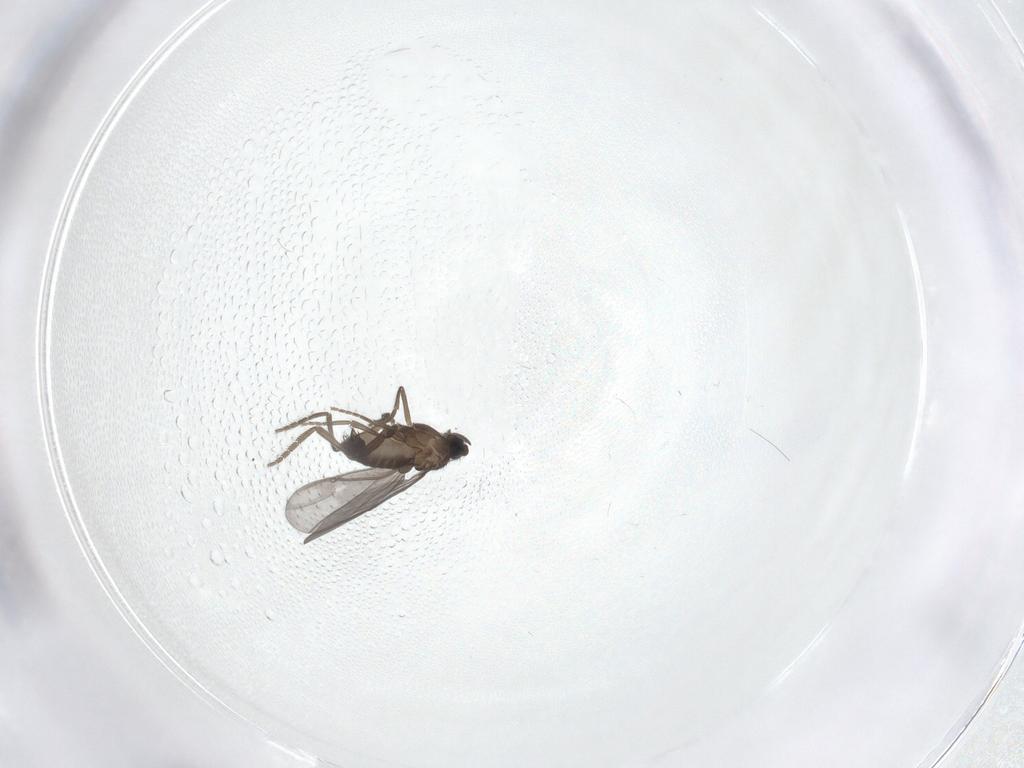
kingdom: Animalia
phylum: Arthropoda
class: Insecta
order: Diptera
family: Phoridae
